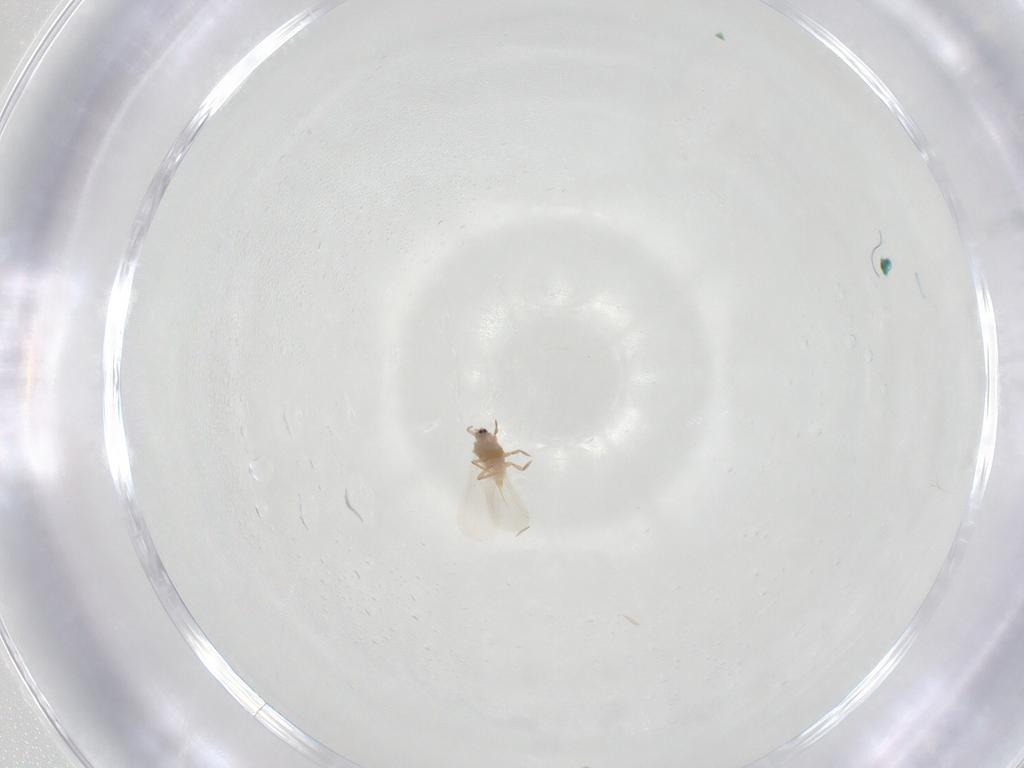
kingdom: Animalia
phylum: Arthropoda
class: Insecta
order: Hemiptera
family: Coccoidea_incertae_sedis
